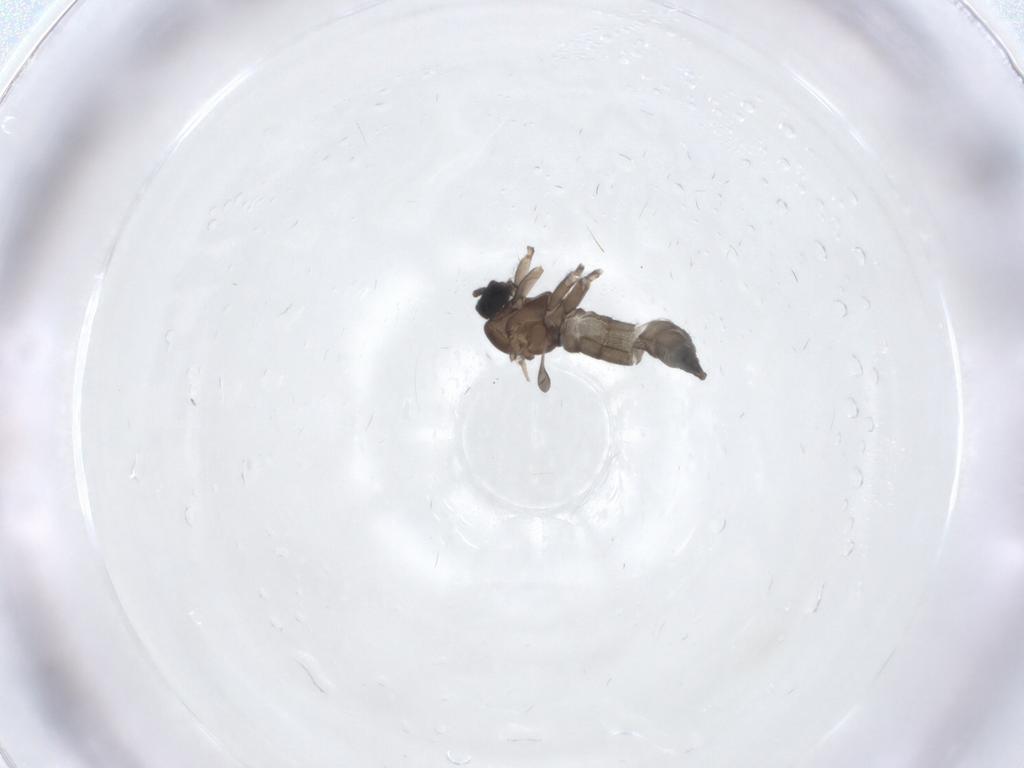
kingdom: Animalia
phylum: Arthropoda
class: Insecta
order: Diptera
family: Sciaridae
